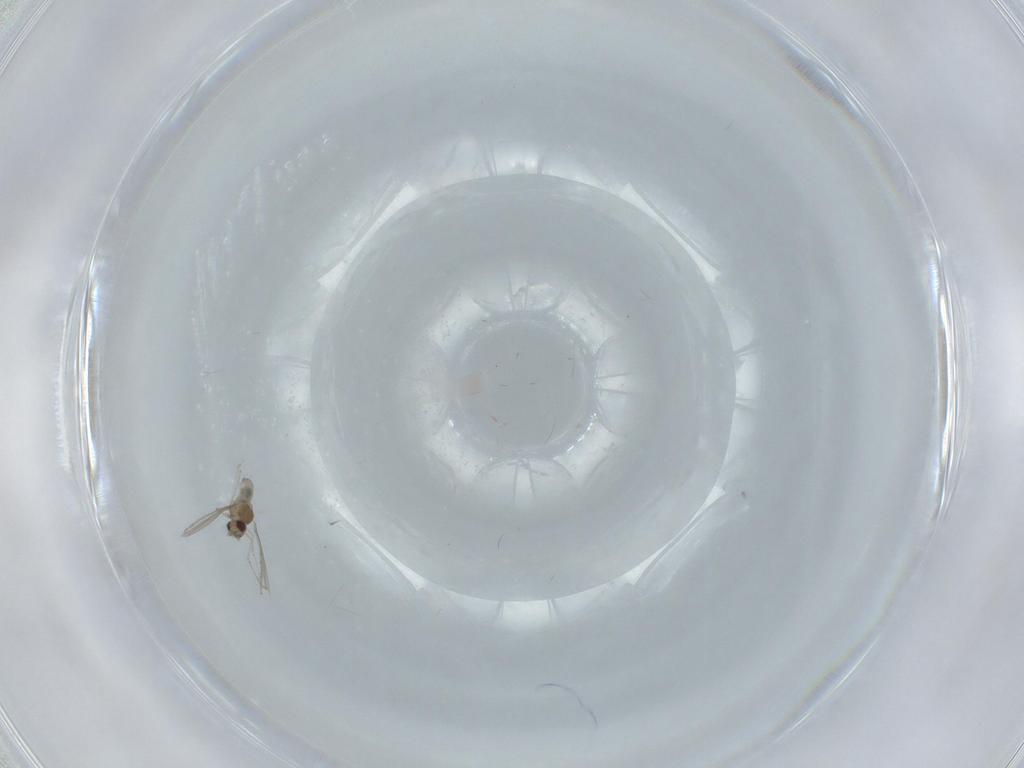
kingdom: Animalia
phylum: Arthropoda
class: Insecta
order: Diptera
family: Cecidomyiidae
